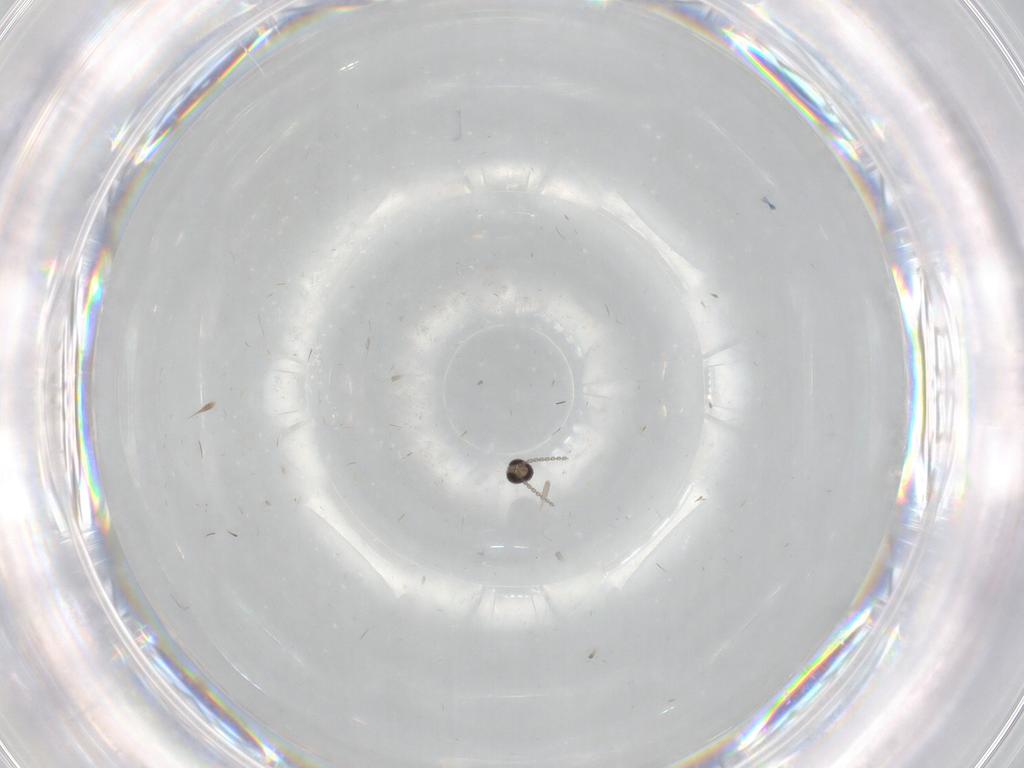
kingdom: Animalia
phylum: Arthropoda
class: Insecta
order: Diptera
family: Cecidomyiidae
